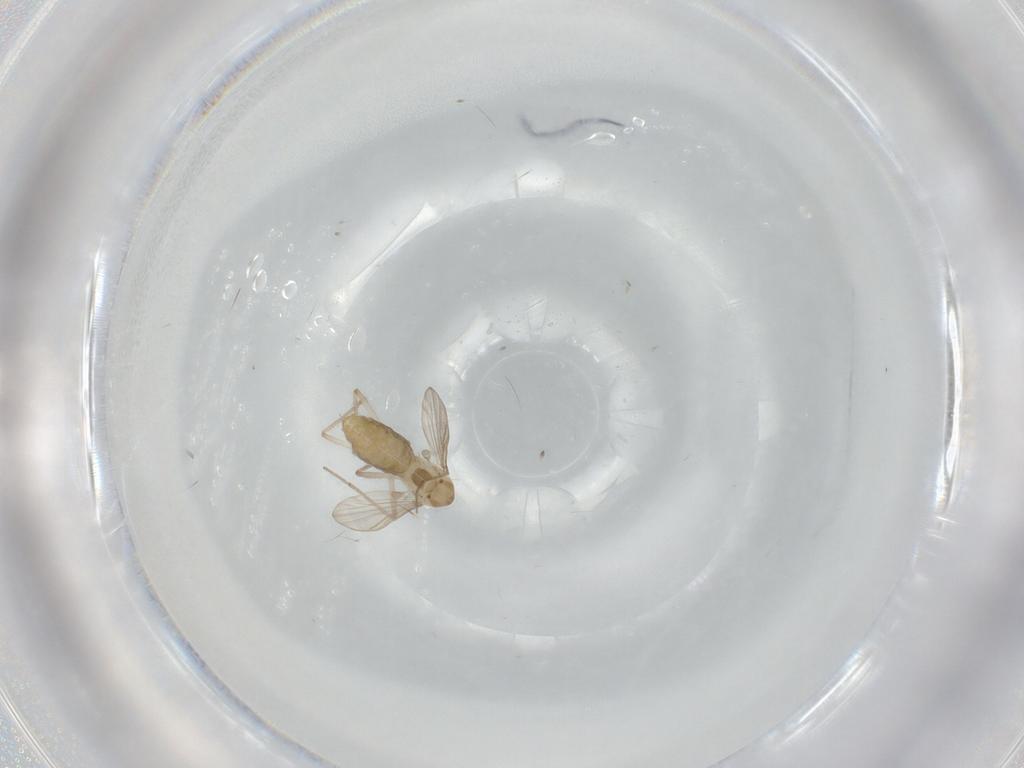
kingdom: Animalia
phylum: Arthropoda
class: Insecta
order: Diptera
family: Chironomidae
